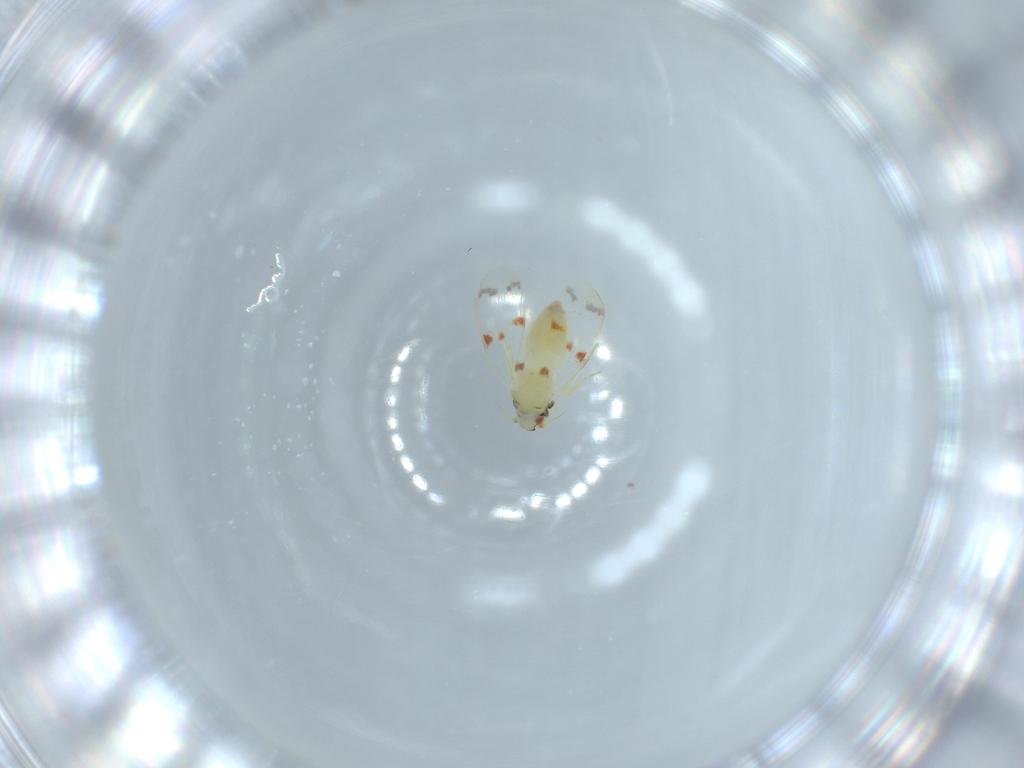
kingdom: Animalia
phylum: Arthropoda
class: Insecta
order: Hemiptera
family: Aleyrodidae
